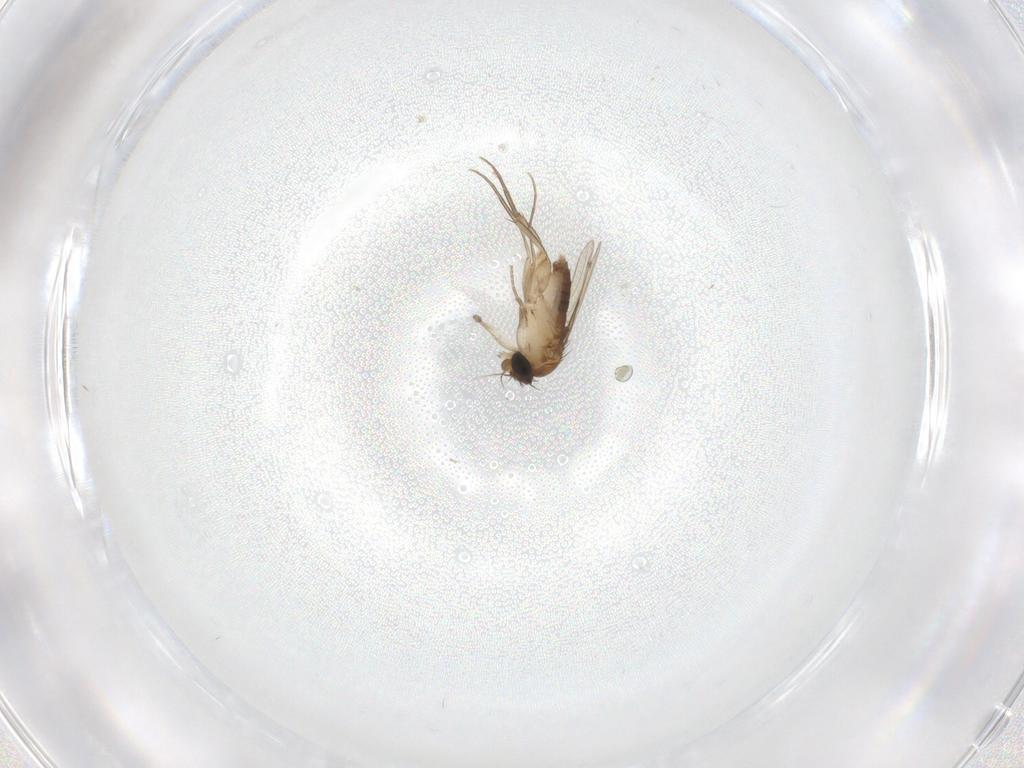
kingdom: Animalia
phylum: Arthropoda
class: Insecta
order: Diptera
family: Phoridae
